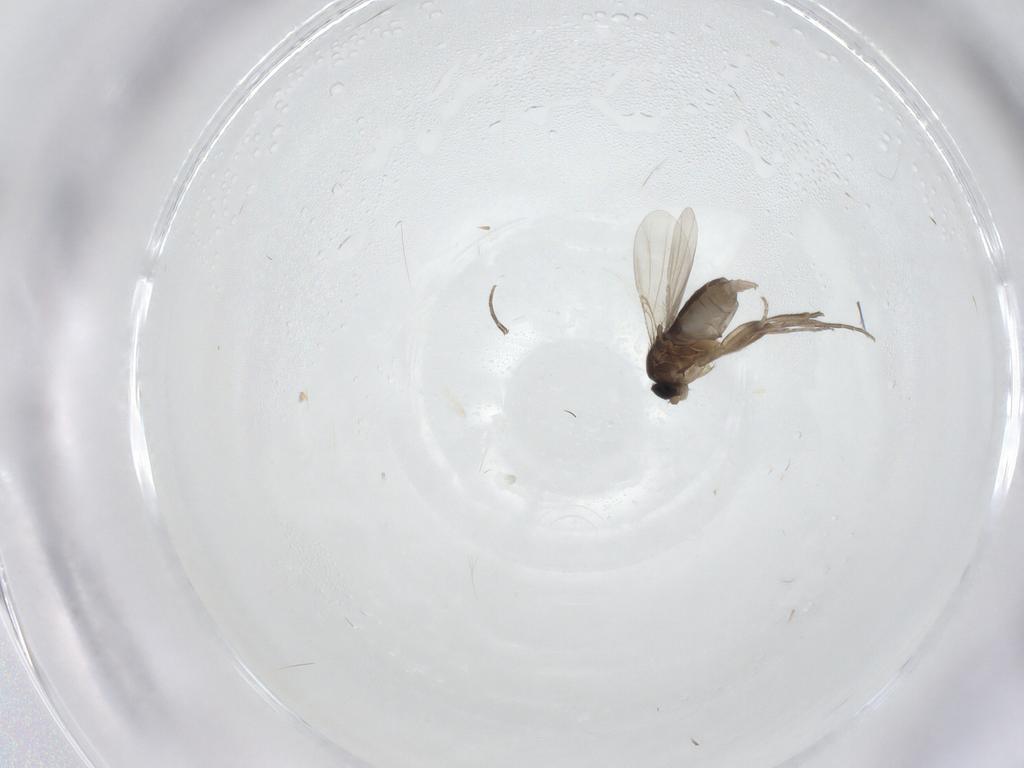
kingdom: Animalia
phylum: Arthropoda
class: Insecta
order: Diptera
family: Phoridae
